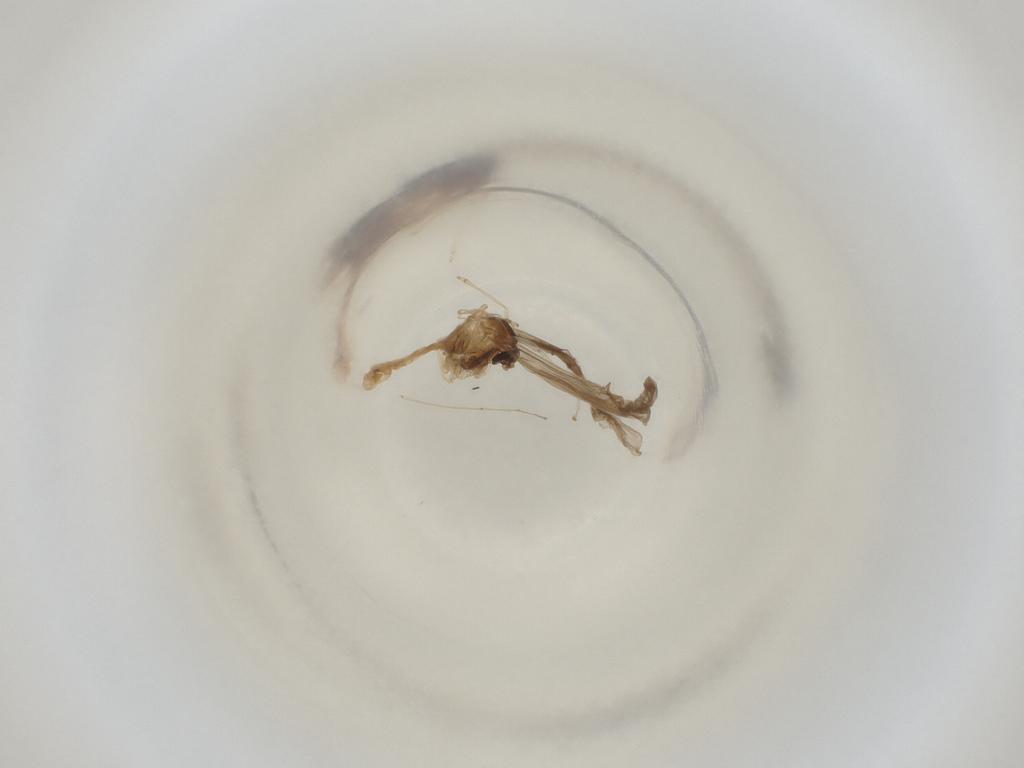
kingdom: Animalia
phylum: Arthropoda
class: Insecta
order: Diptera
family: Cecidomyiidae
